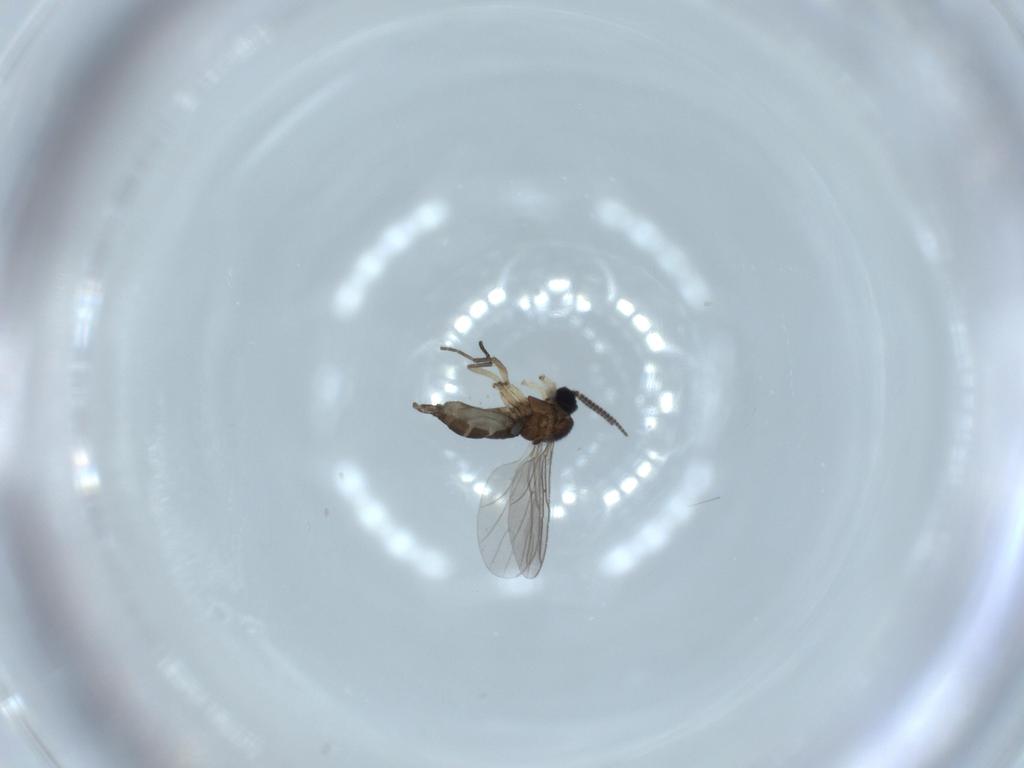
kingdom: Animalia
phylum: Arthropoda
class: Insecta
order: Diptera
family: Sciaridae
